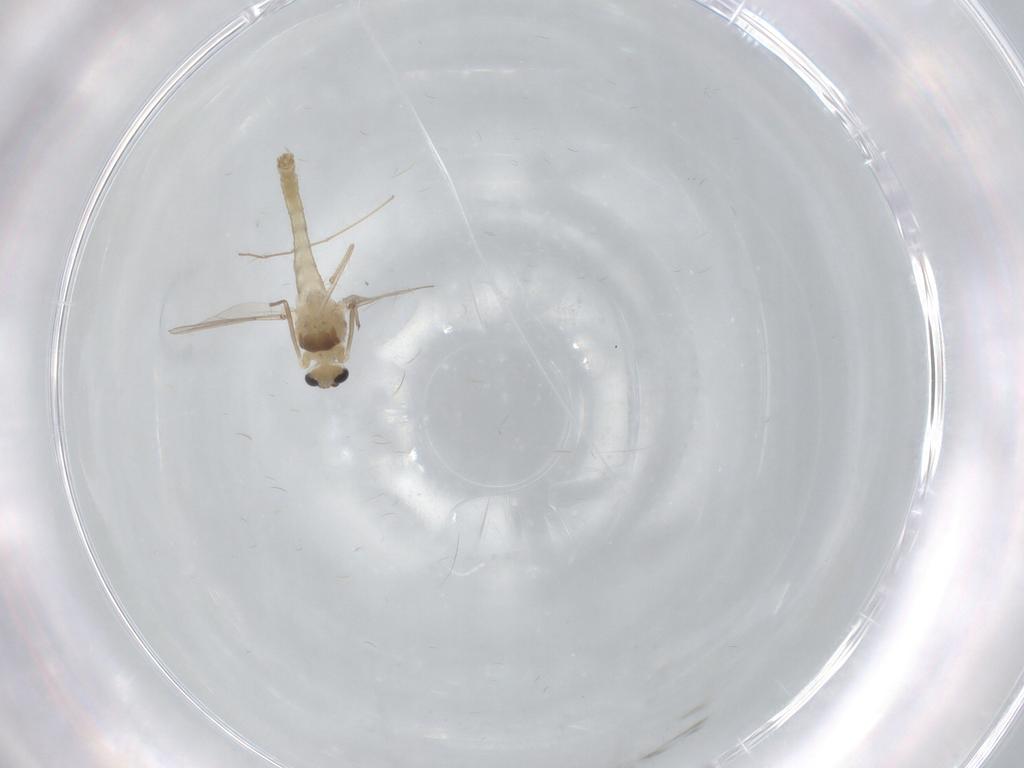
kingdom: Animalia
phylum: Arthropoda
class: Insecta
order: Diptera
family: Chironomidae
